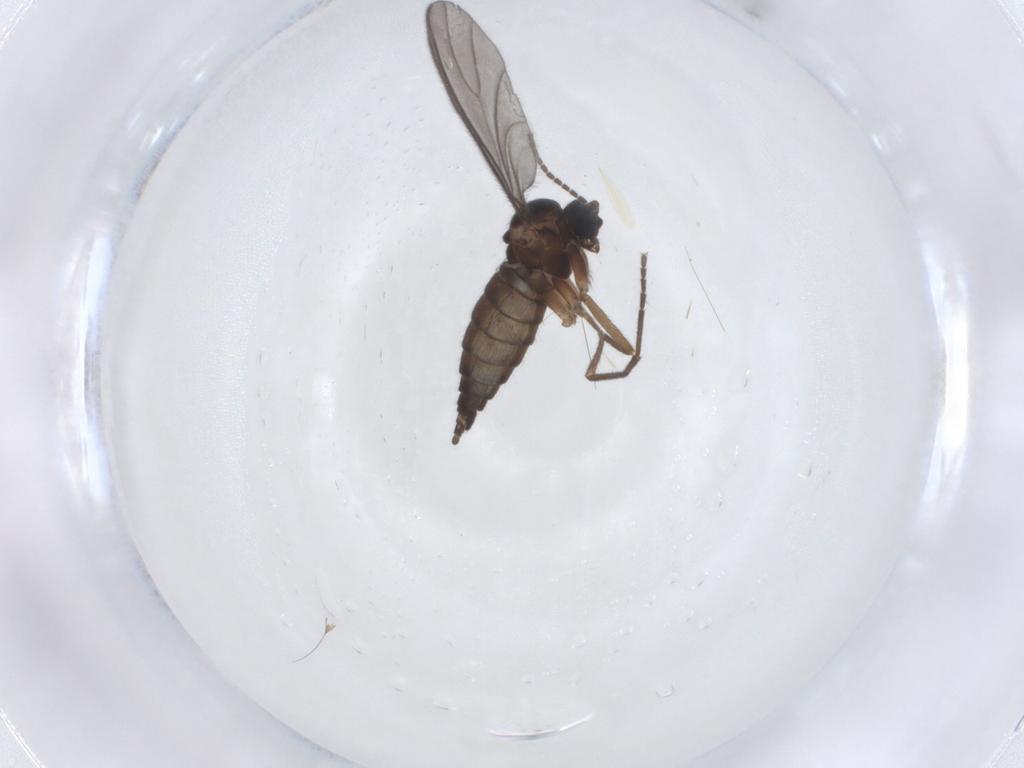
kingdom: Animalia
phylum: Arthropoda
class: Insecta
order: Diptera
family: Sciaridae
